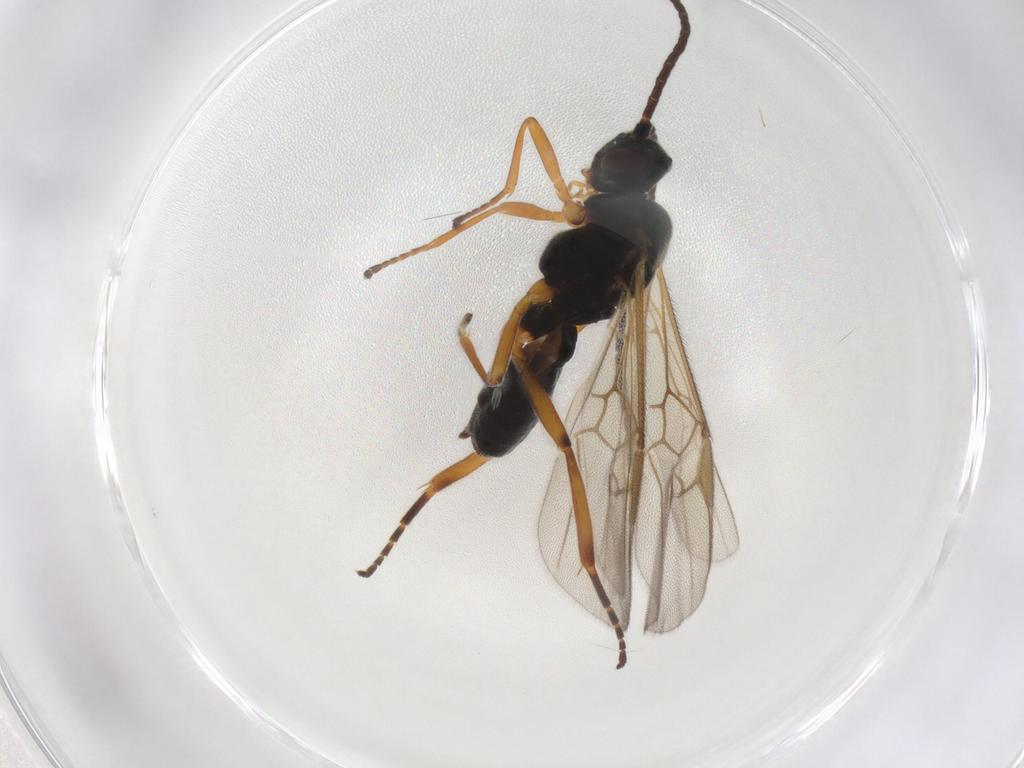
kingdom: Animalia
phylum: Arthropoda
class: Insecta
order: Hymenoptera
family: Braconidae
